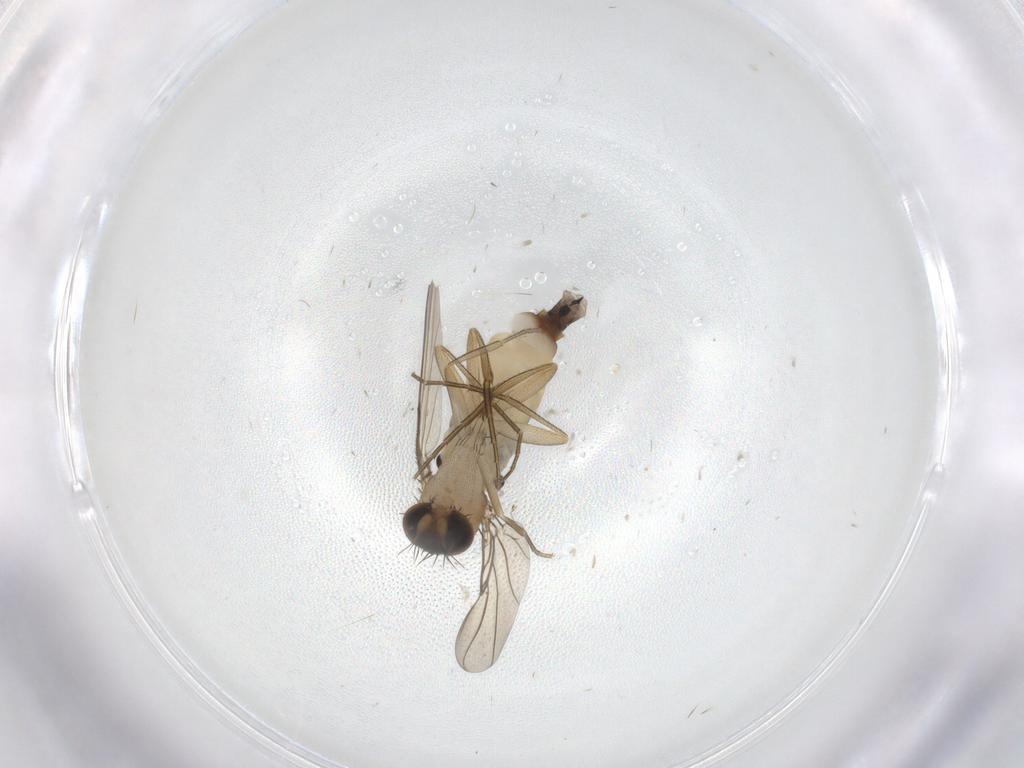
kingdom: Animalia
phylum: Arthropoda
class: Insecta
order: Diptera
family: Phoridae
